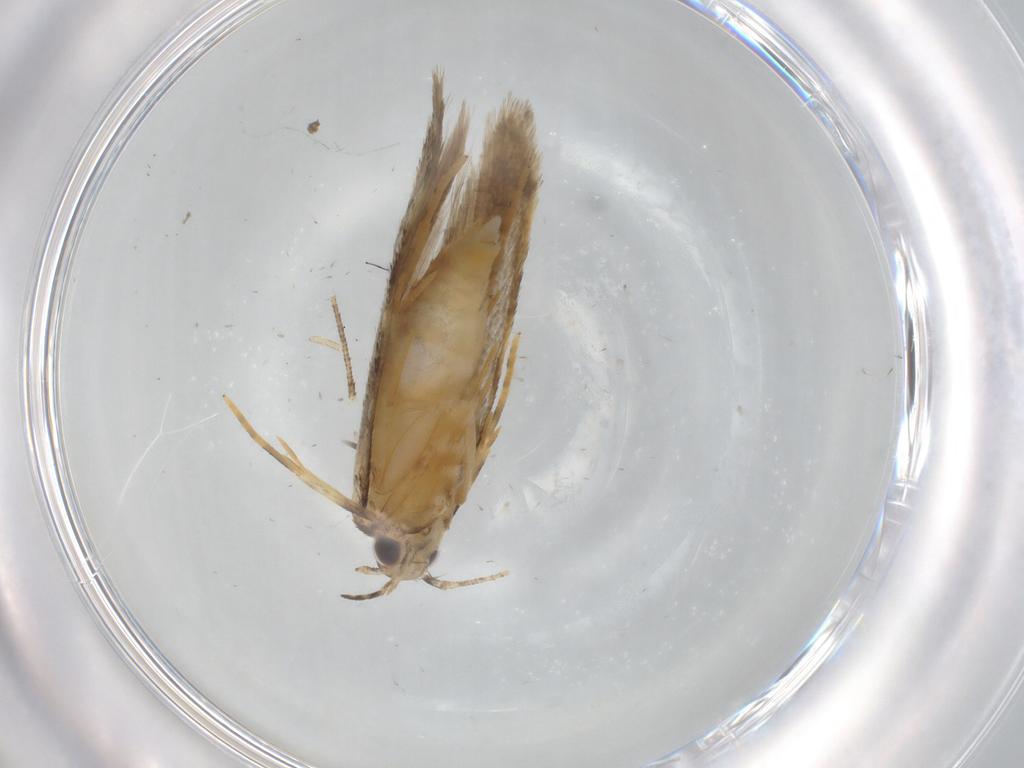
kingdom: Animalia
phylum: Arthropoda
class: Insecta
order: Lepidoptera
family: Autostichidae
